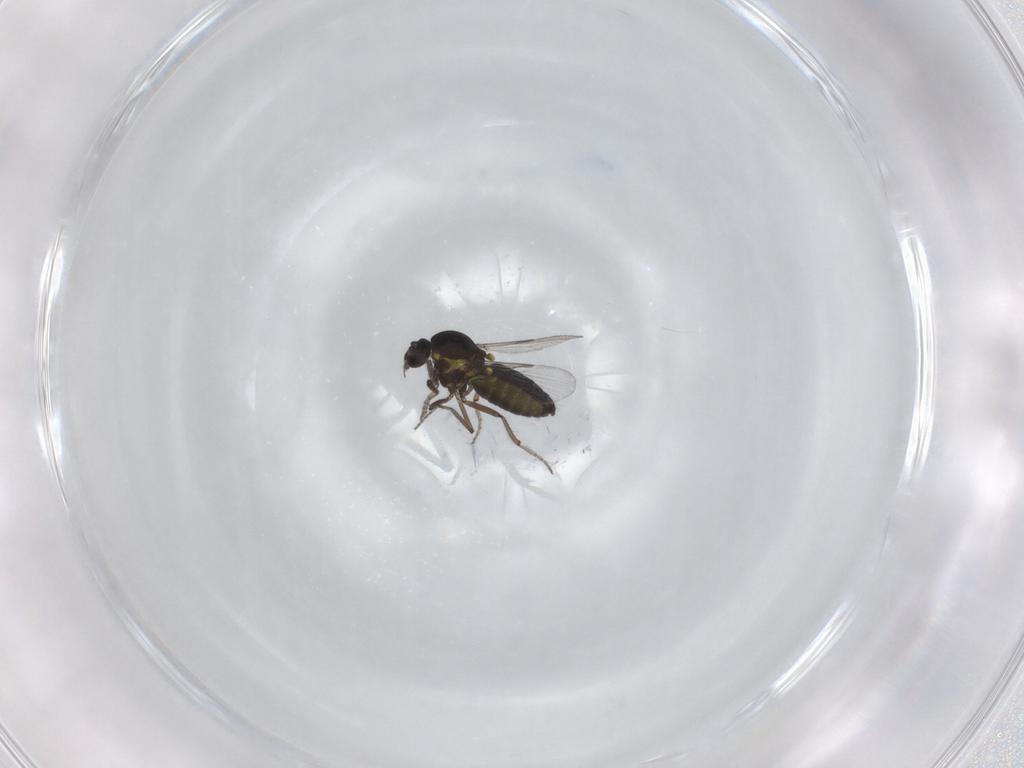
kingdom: Animalia
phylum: Arthropoda
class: Insecta
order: Diptera
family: Ceratopogonidae
